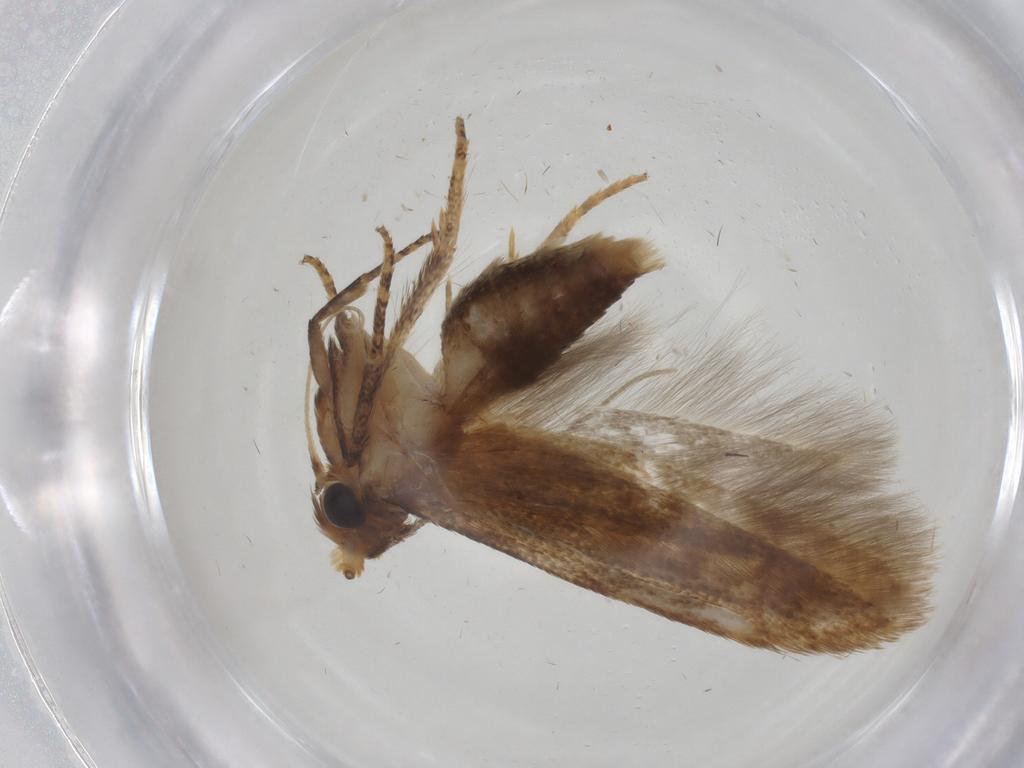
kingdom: Animalia
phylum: Arthropoda
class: Insecta
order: Lepidoptera
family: Blastobasidae
